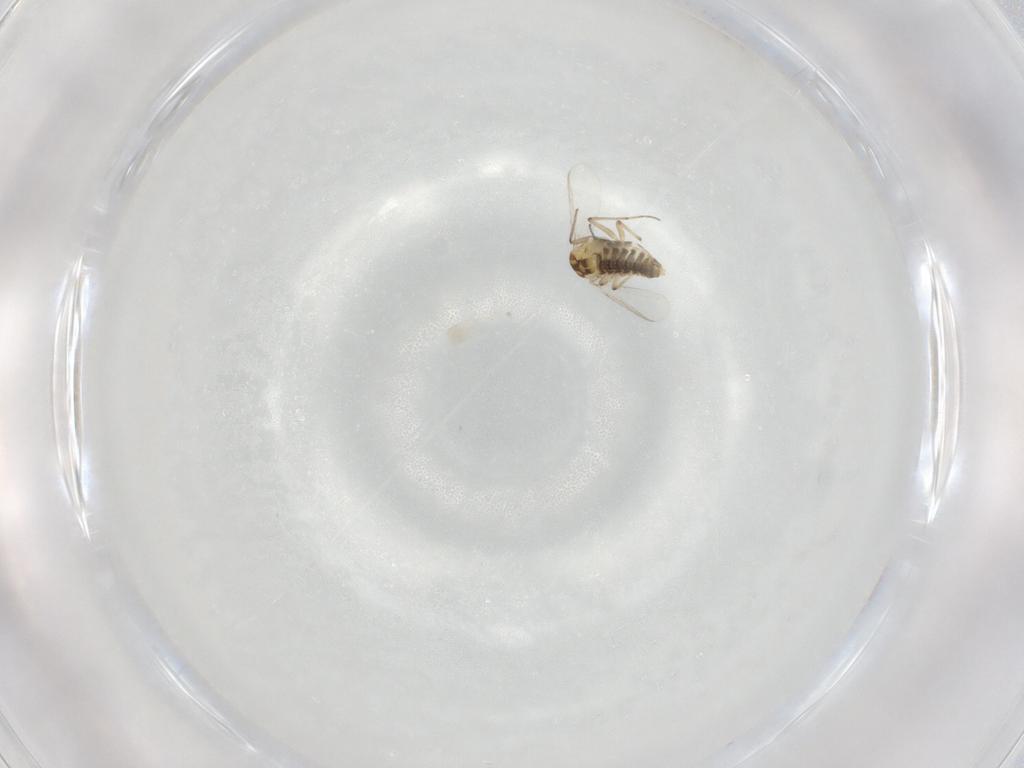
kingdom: Animalia
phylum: Arthropoda
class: Insecta
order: Diptera
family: Chironomidae
